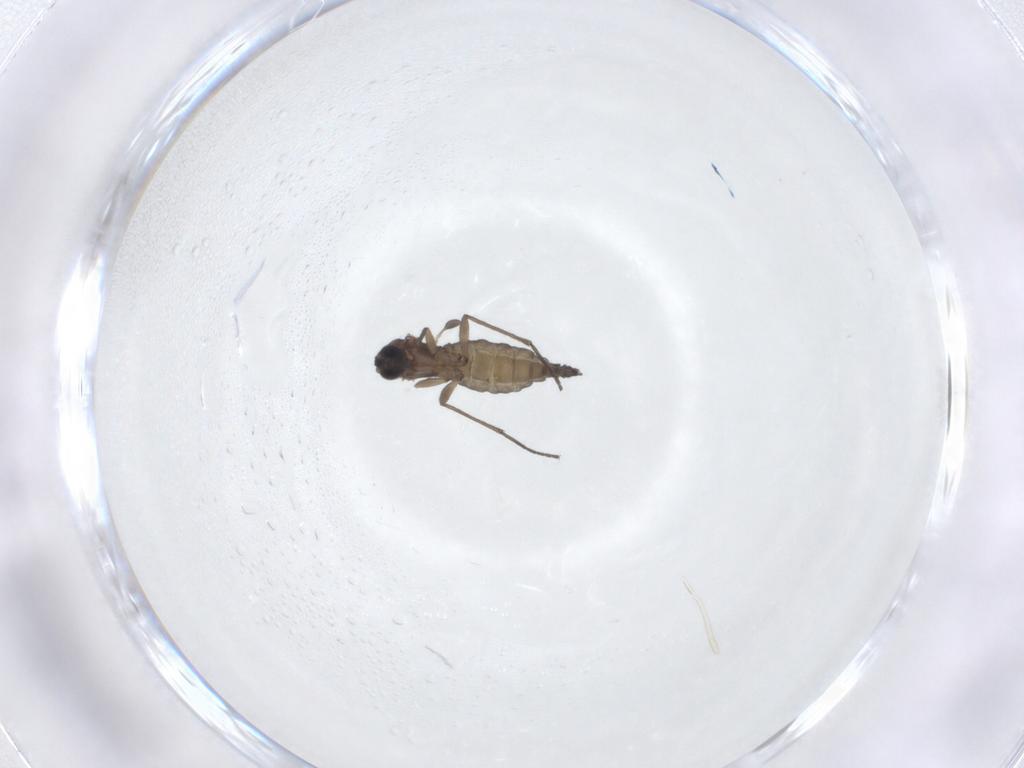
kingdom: Animalia
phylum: Arthropoda
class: Insecta
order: Diptera
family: Sciaridae
